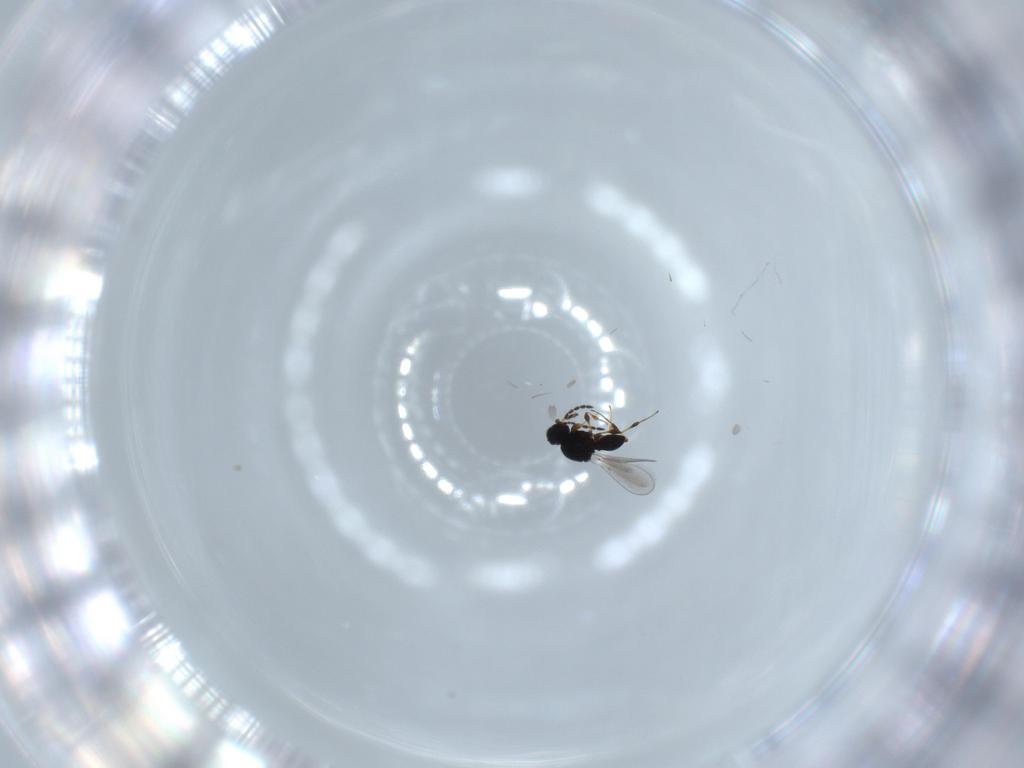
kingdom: Animalia
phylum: Arthropoda
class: Insecta
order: Hymenoptera
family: Platygastridae
